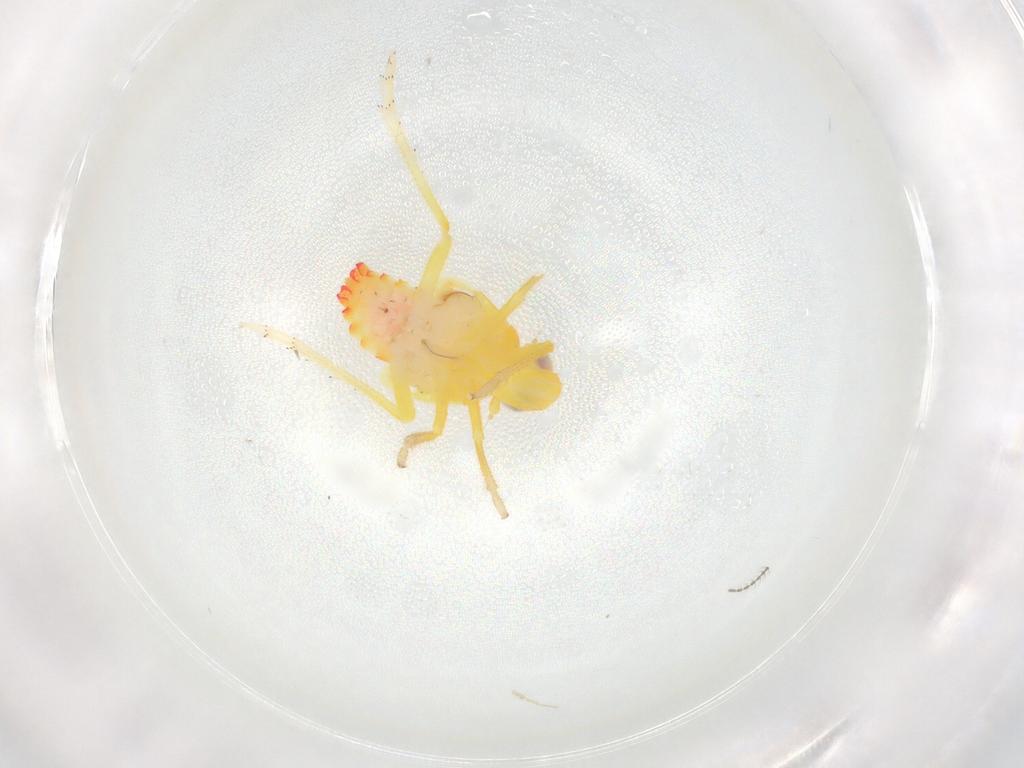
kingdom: Animalia
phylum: Arthropoda
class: Insecta
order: Hemiptera
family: Tropiduchidae
